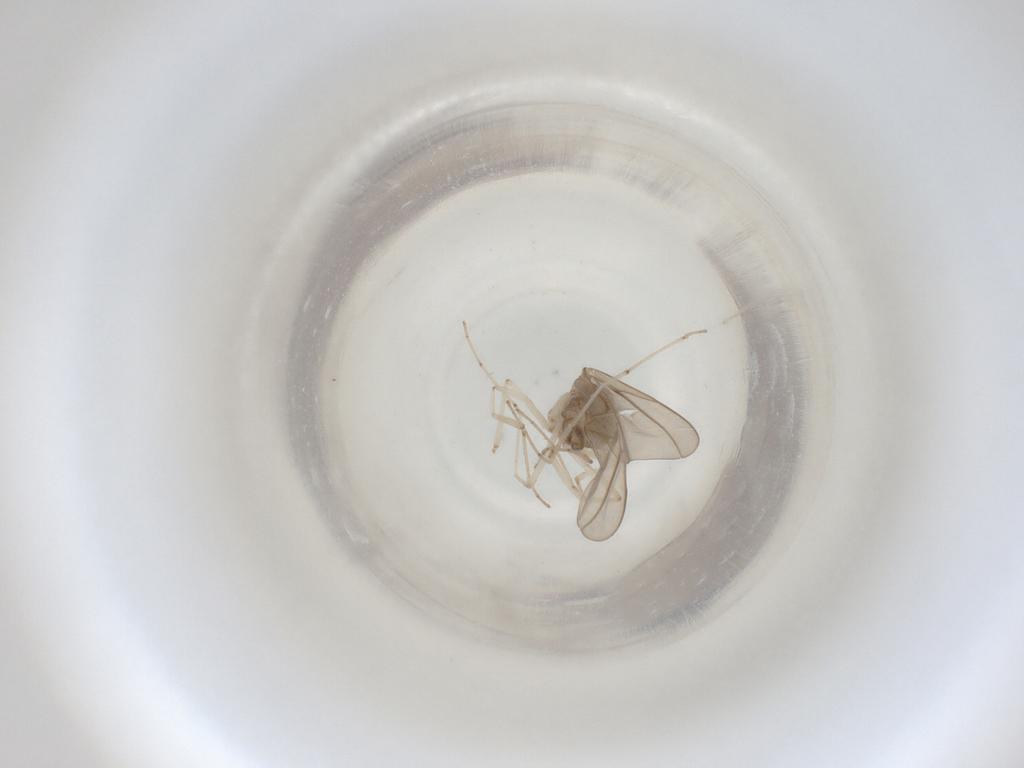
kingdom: Animalia
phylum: Arthropoda
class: Insecta
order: Diptera
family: Cecidomyiidae
